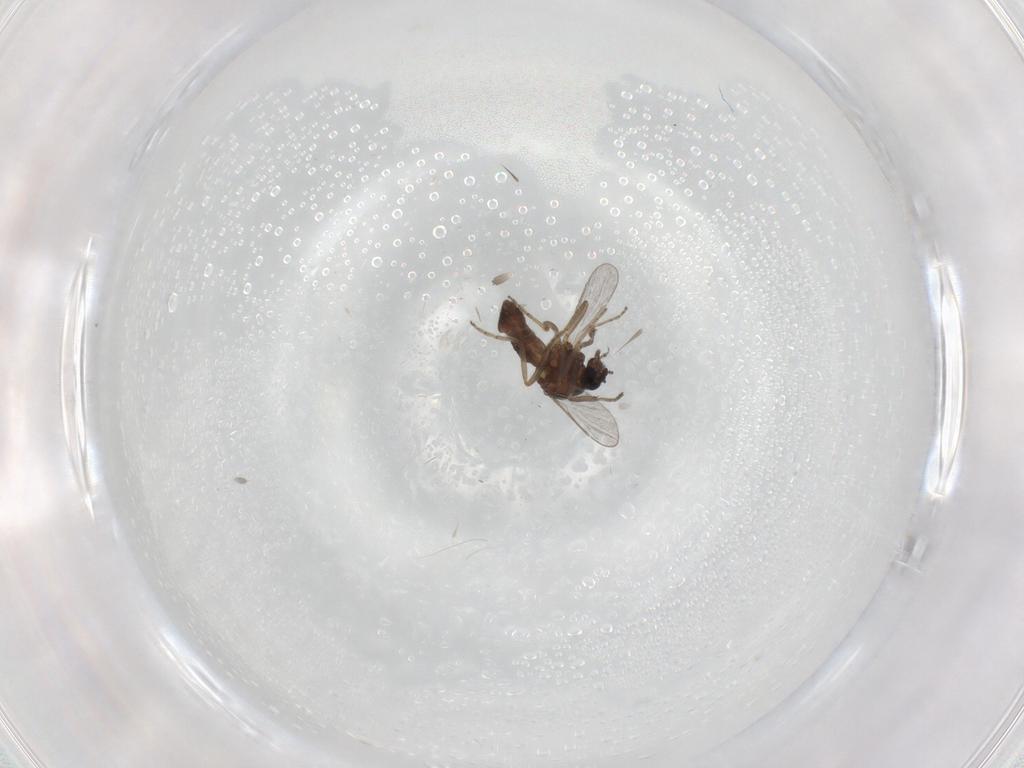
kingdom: Animalia
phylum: Arthropoda
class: Insecta
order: Diptera
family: Ceratopogonidae
